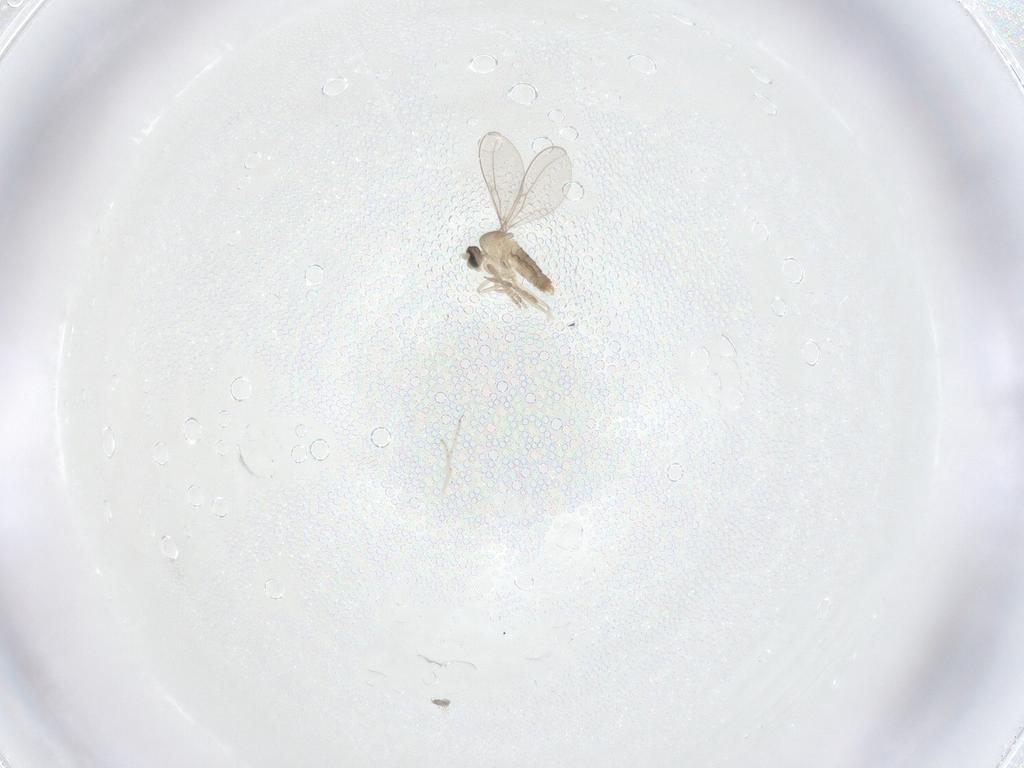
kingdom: Animalia
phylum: Arthropoda
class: Insecta
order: Diptera
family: Cecidomyiidae
